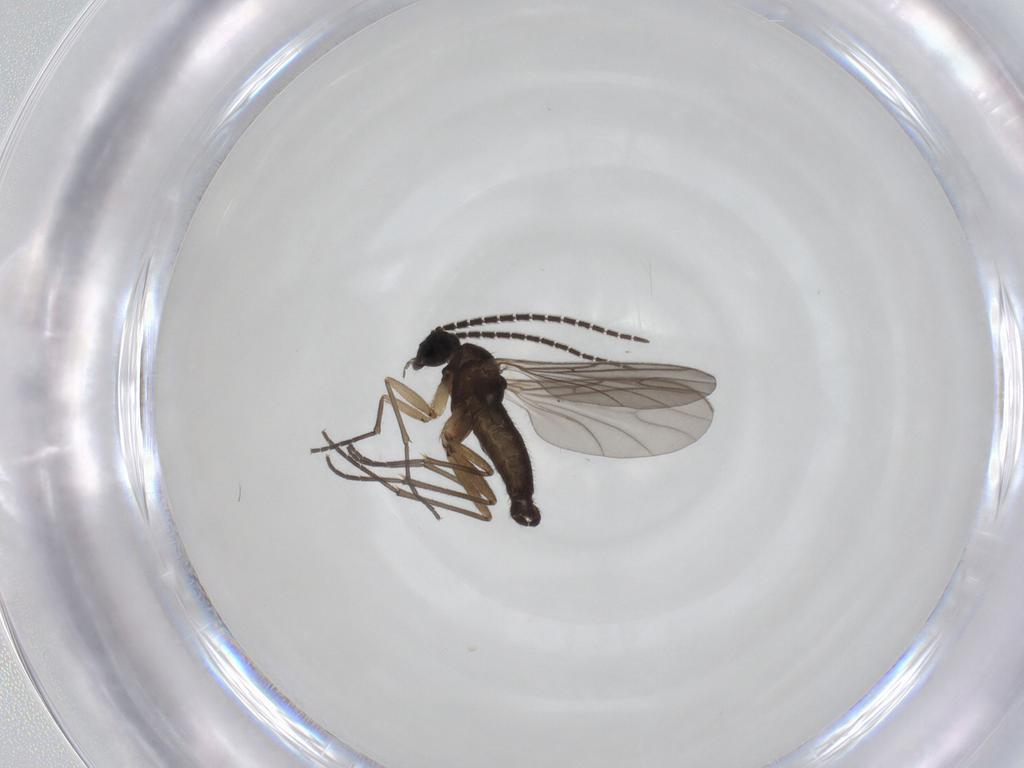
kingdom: Animalia
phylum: Arthropoda
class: Insecta
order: Diptera
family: Sciaridae
